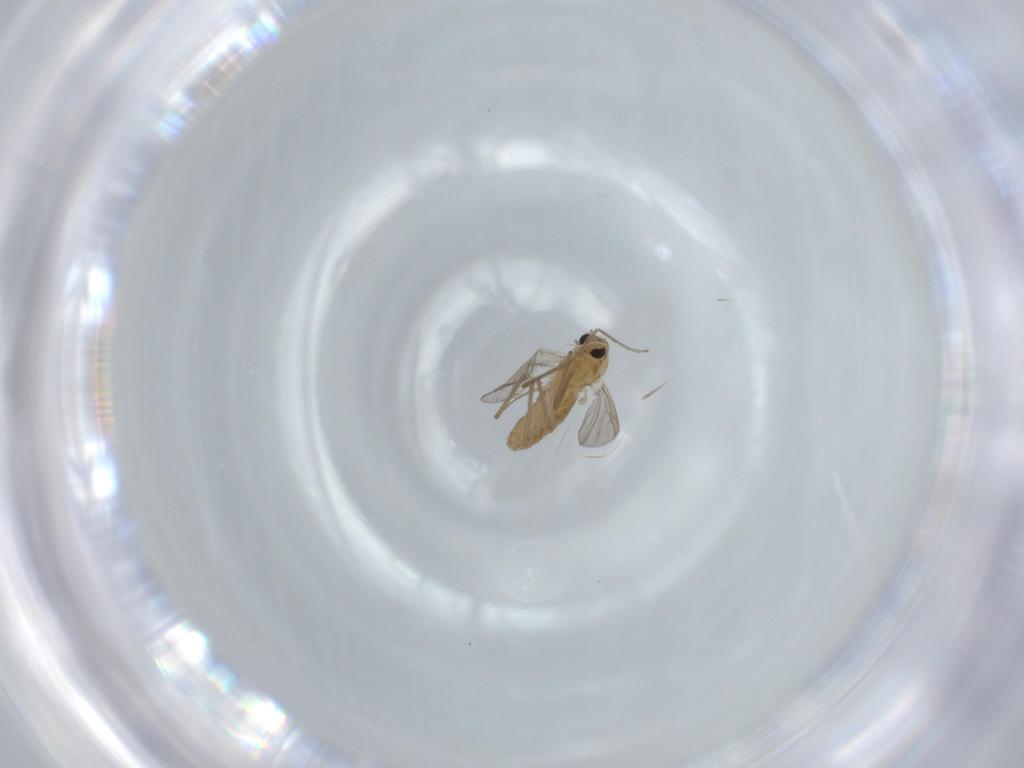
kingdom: Animalia
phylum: Arthropoda
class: Insecta
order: Diptera
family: Chironomidae
